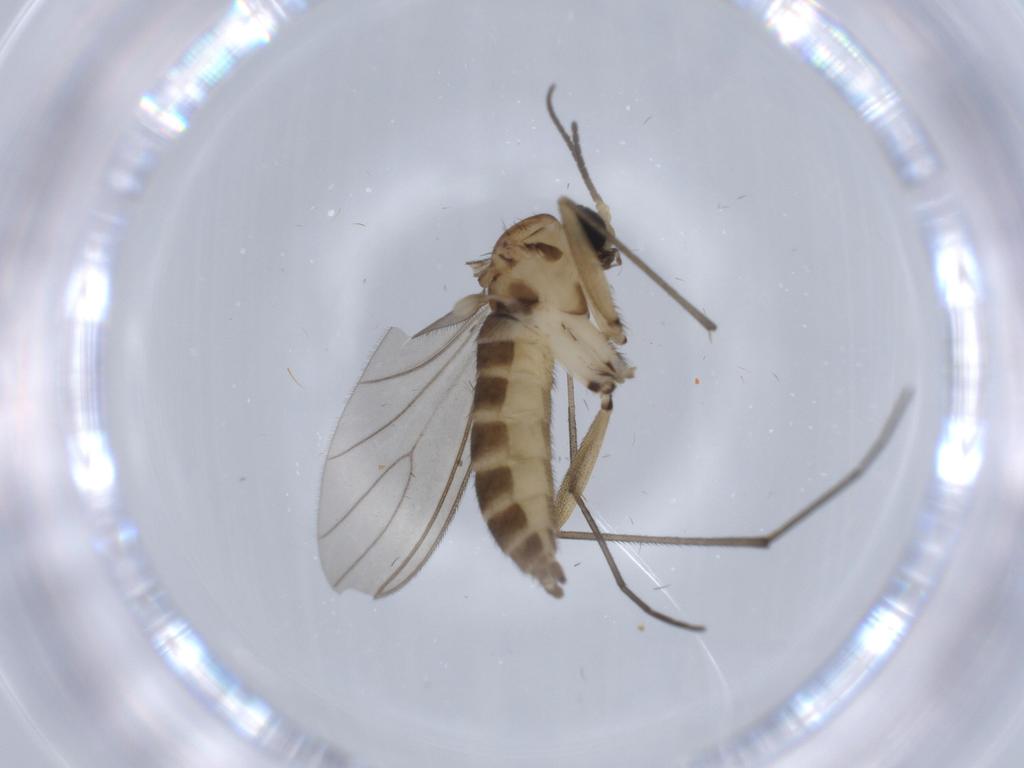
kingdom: Animalia
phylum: Arthropoda
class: Insecta
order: Diptera
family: Sciaridae
